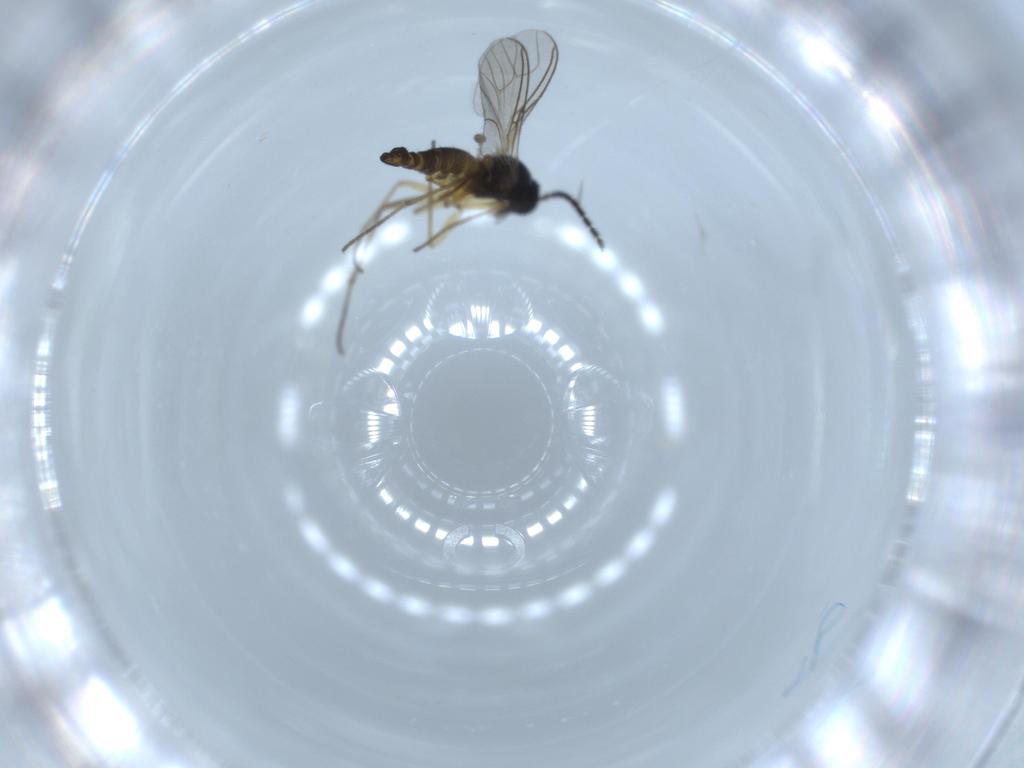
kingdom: Animalia
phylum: Arthropoda
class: Insecta
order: Diptera
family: Sciaridae
